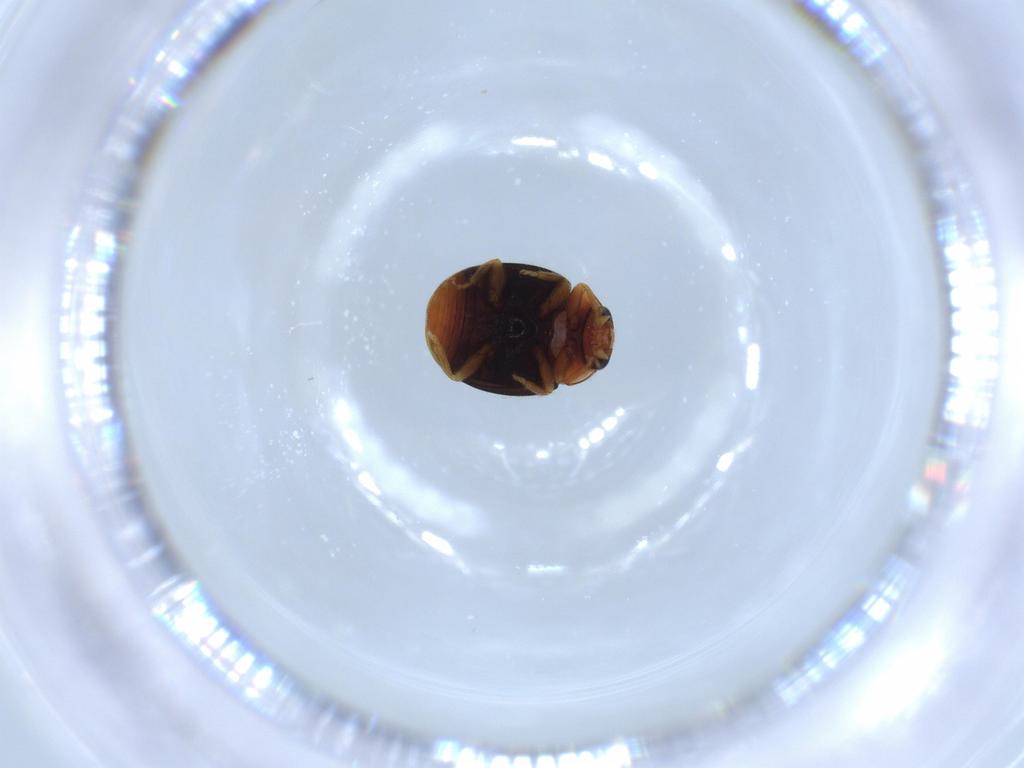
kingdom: Animalia
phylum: Arthropoda
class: Insecta
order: Coleoptera
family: Coccinellidae
